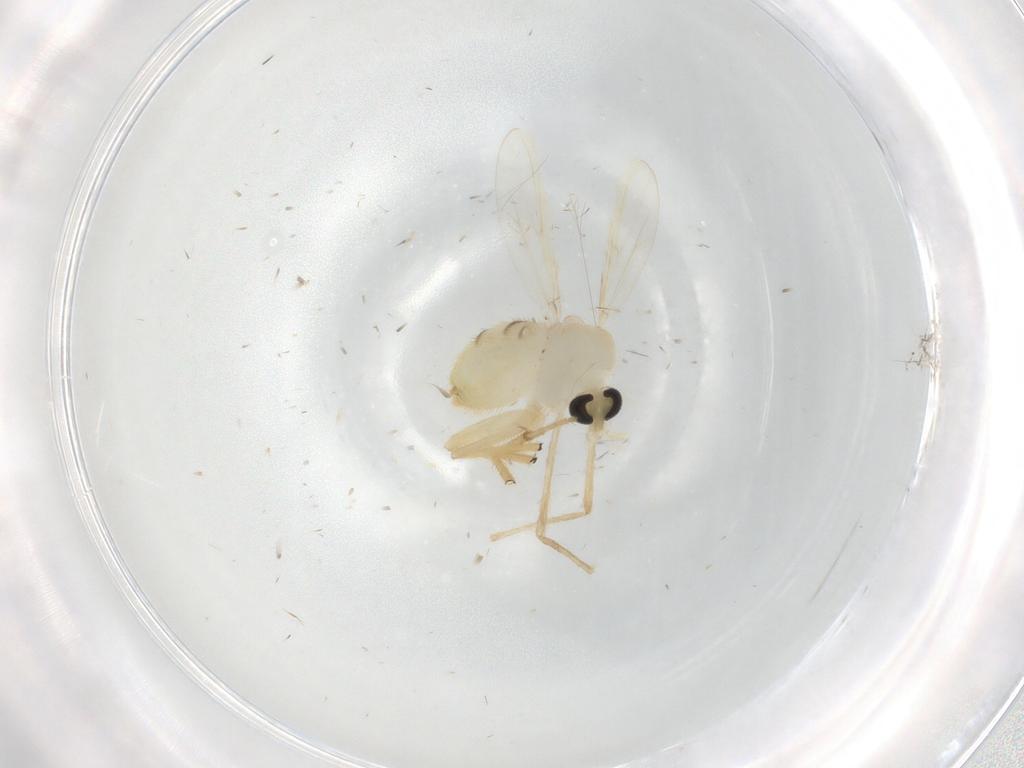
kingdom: Animalia
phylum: Arthropoda
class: Insecta
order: Diptera
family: Chironomidae
